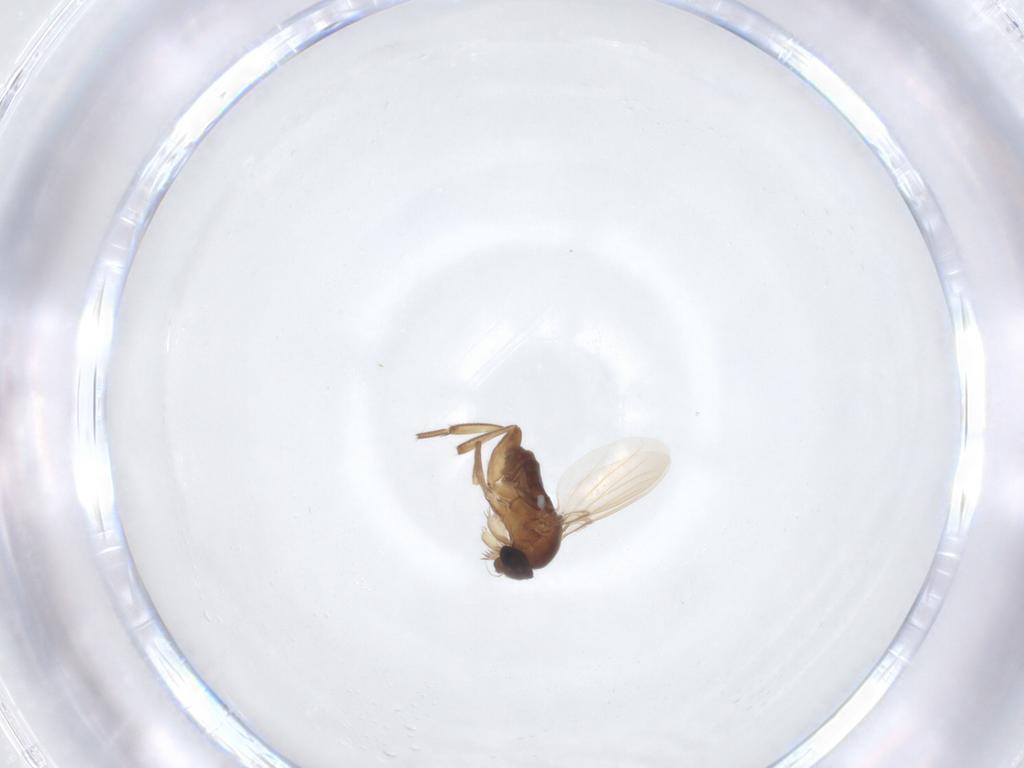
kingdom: Animalia
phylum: Arthropoda
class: Insecta
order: Diptera
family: Phoridae
